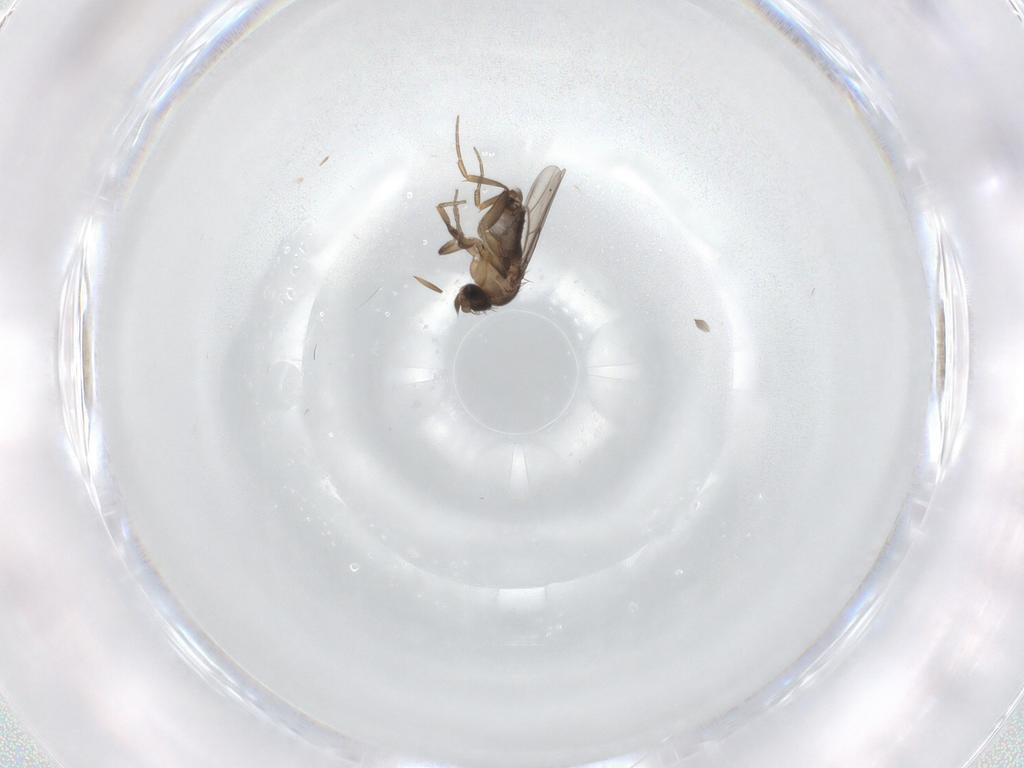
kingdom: Animalia
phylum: Arthropoda
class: Insecta
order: Diptera
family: Phoridae
